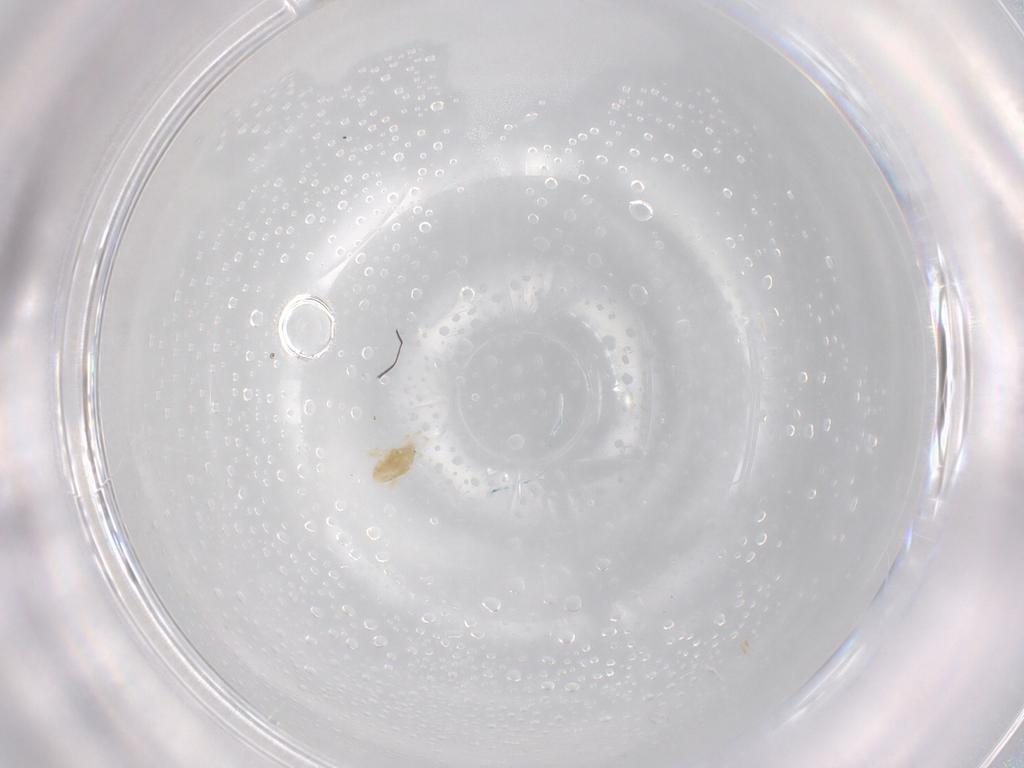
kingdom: Animalia
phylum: Arthropoda
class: Arachnida
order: Trombidiformes
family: Eupodidae
